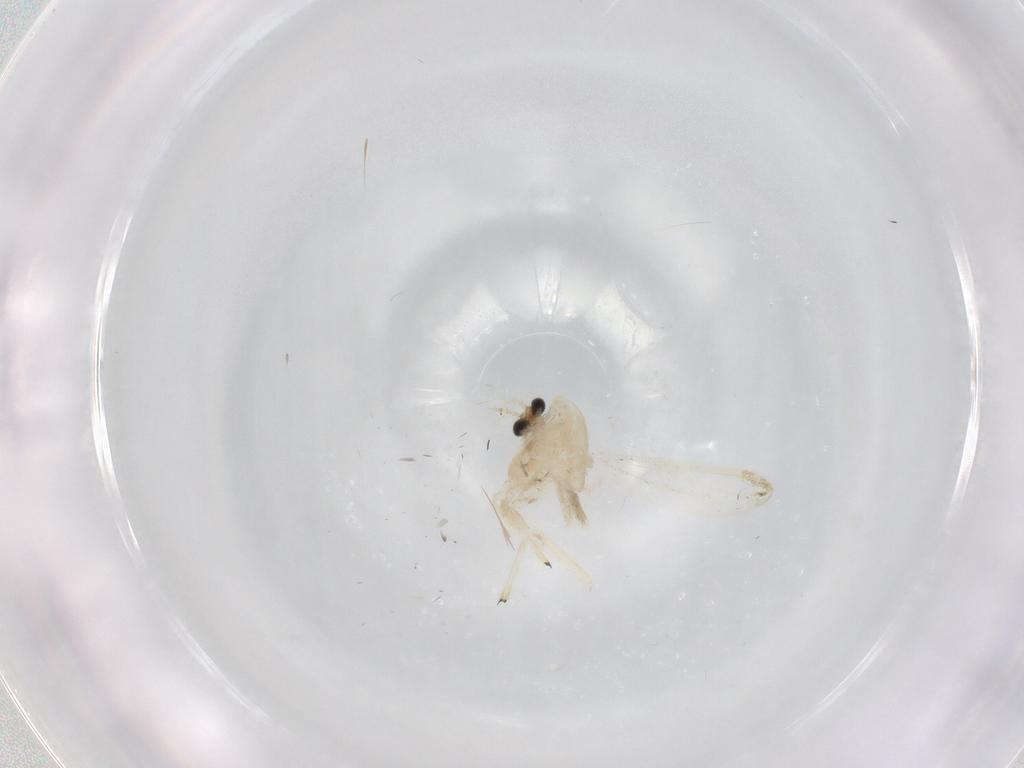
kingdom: Animalia
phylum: Arthropoda
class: Insecta
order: Diptera
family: Chironomidae
